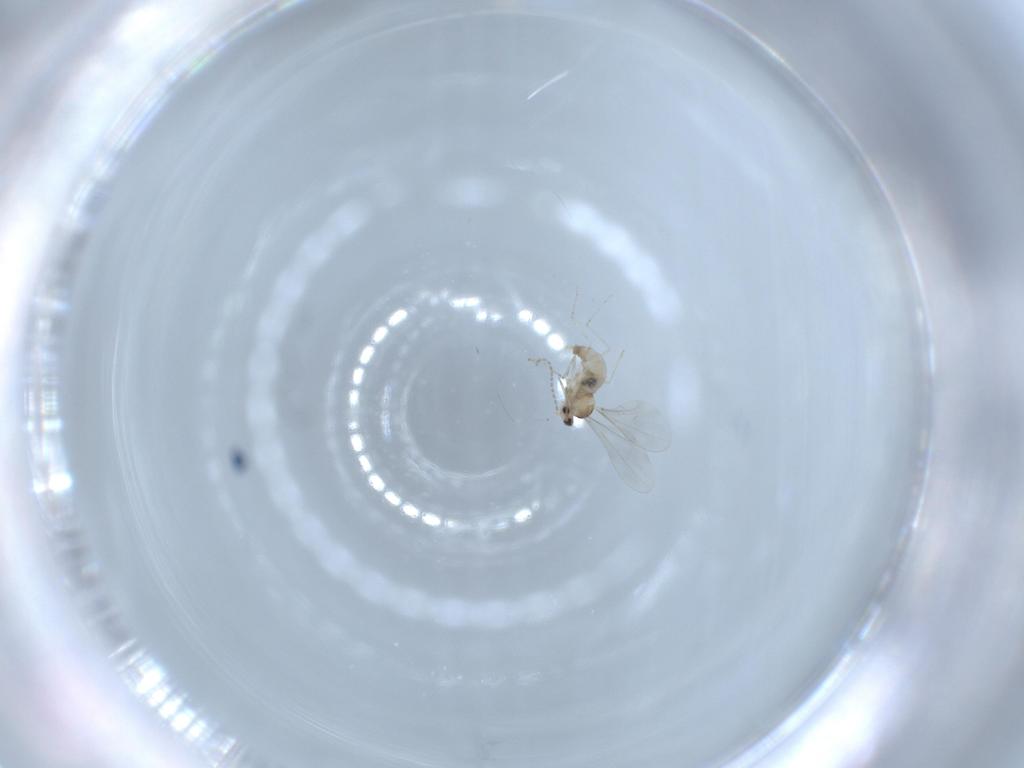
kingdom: Animalia
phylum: Arthropoda
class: Insecta
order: Diptera
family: Cecidomyiidae
